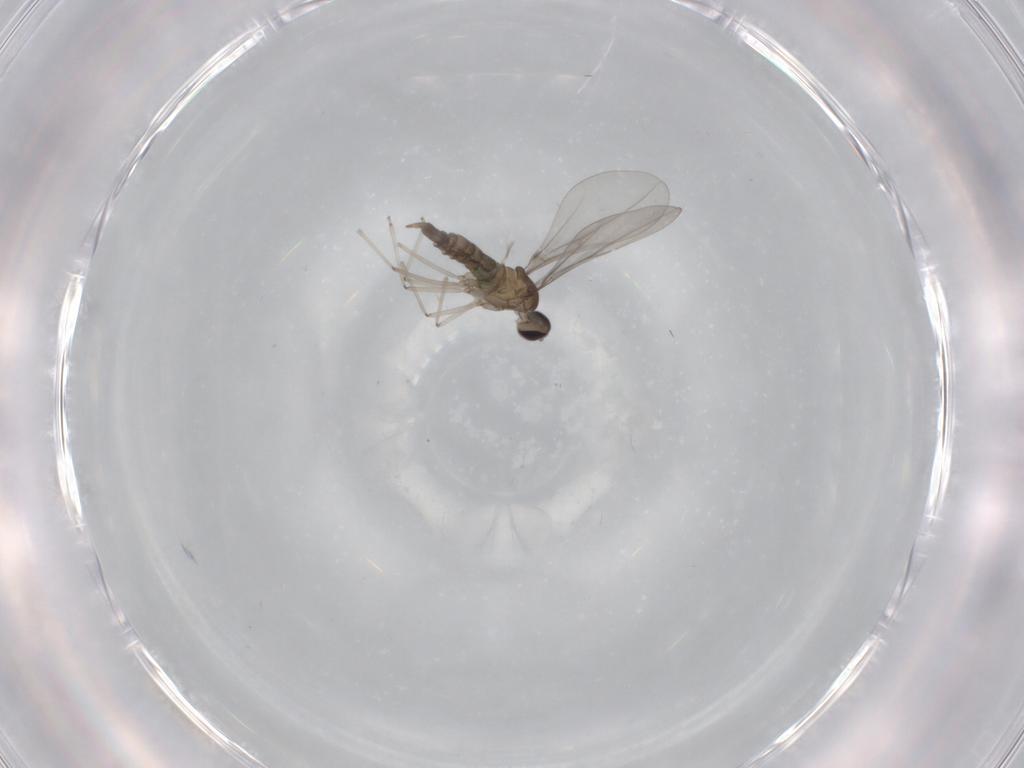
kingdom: Animalia
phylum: Arthropoda
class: Insecta
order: Diptera
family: Cecidomyiidae
